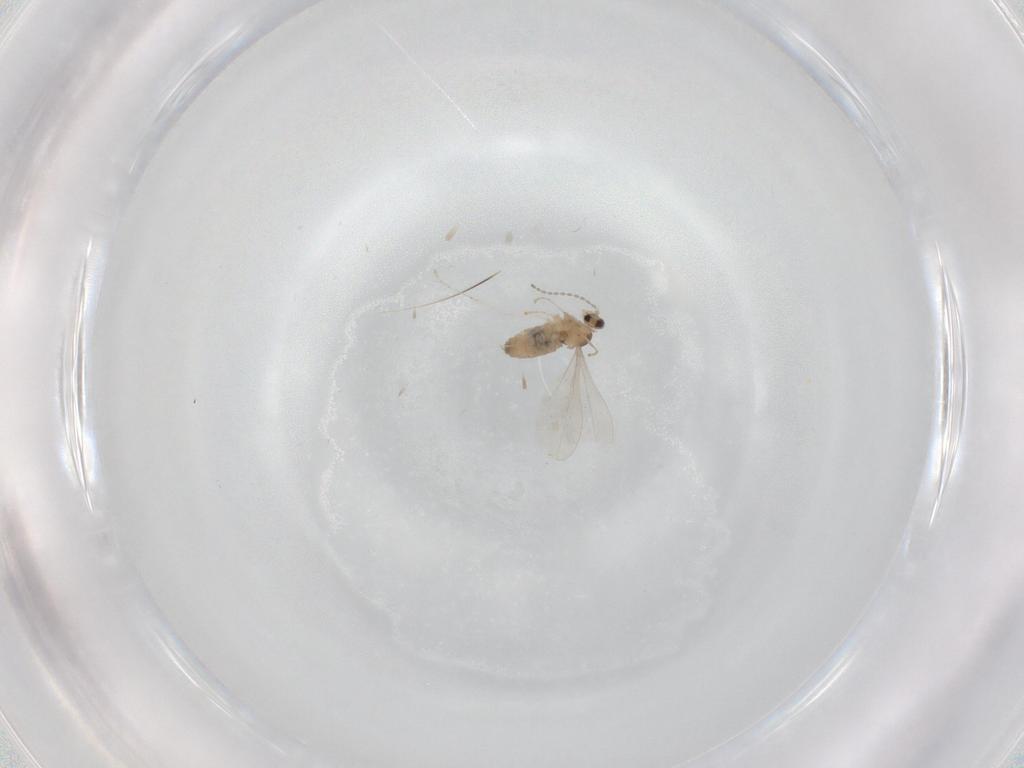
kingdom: Animalia
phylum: Arthropoda
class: Insecta
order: Diptera
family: Cecidomyiidae
